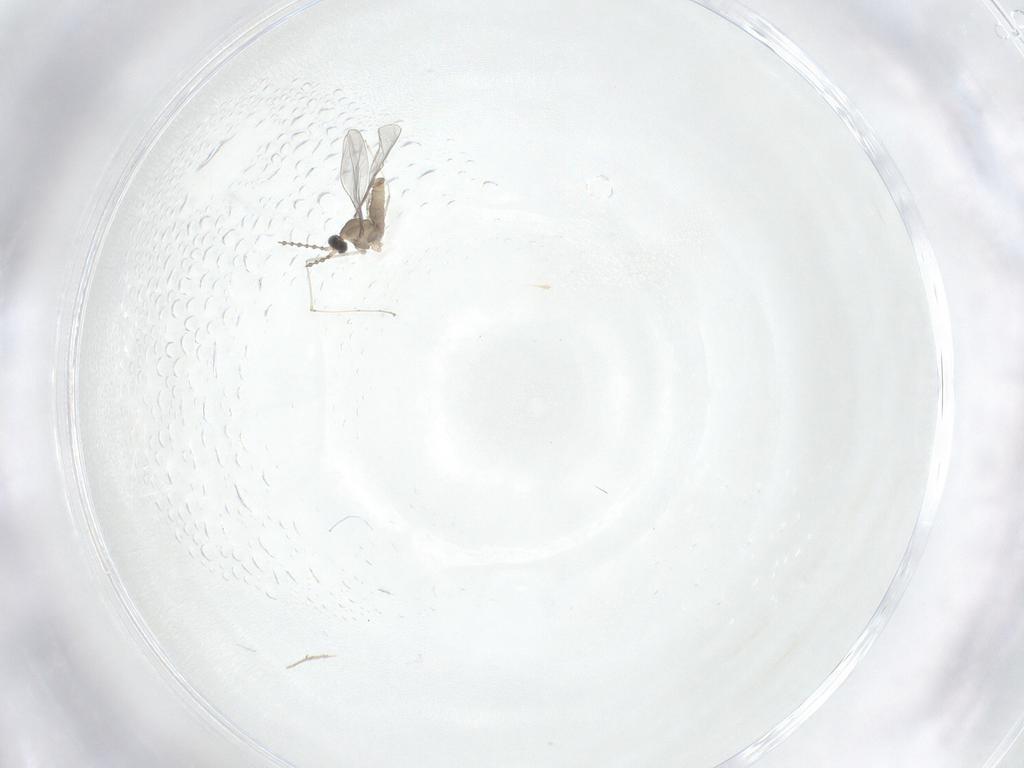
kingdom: Animalia
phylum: Arthropoda
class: Insecta
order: Diptera
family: Cecidomyiidae
